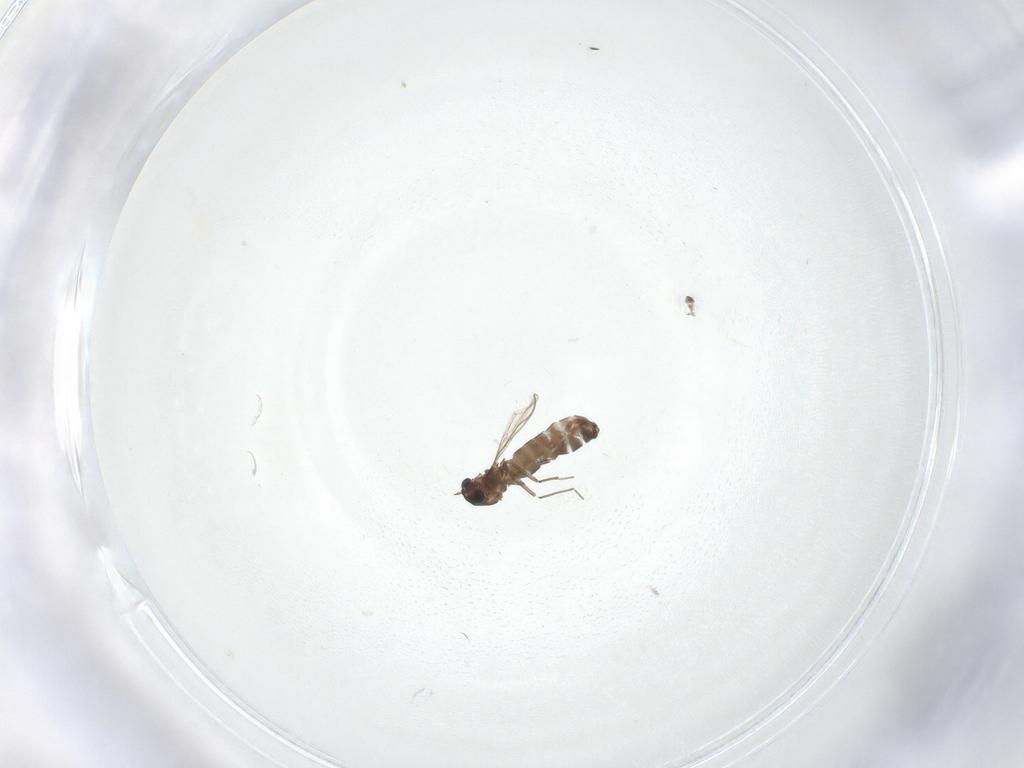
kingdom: Animalia
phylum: Arthropoda
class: Insecta
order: Diptera
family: Chironomidae
